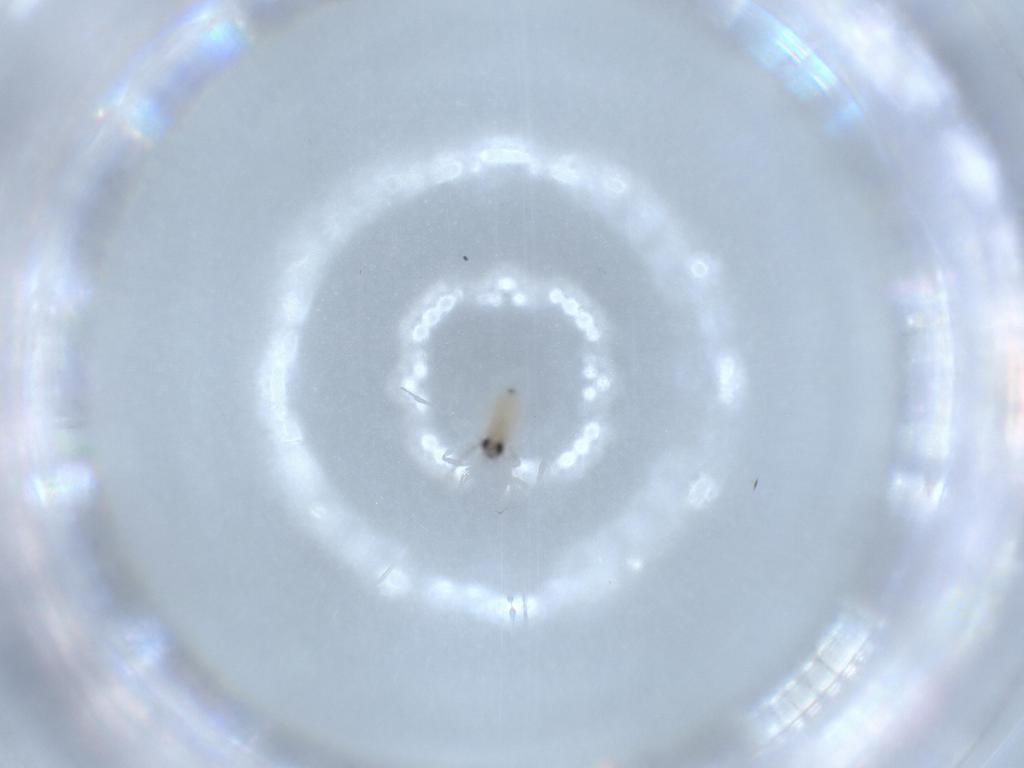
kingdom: Animalia
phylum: Arthropoda
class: Insecta
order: Diptera
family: Cecidomyiidae
